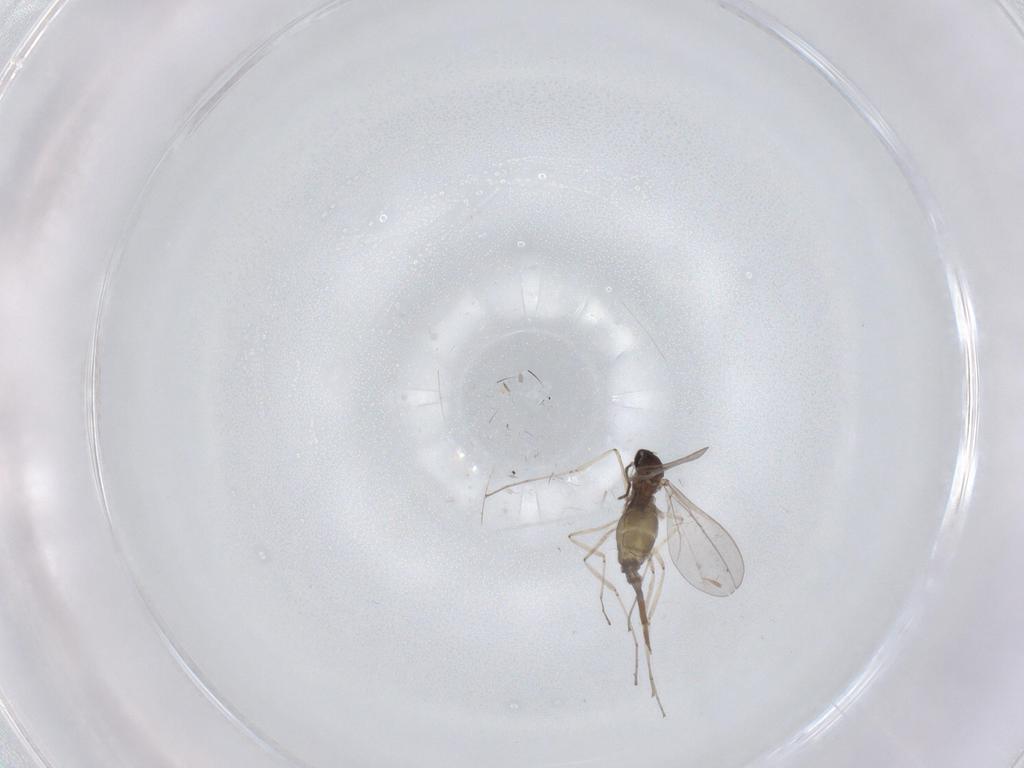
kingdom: Animalia
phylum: Arthropoda
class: Insecta
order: Diptera
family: Cecidomyiidae
